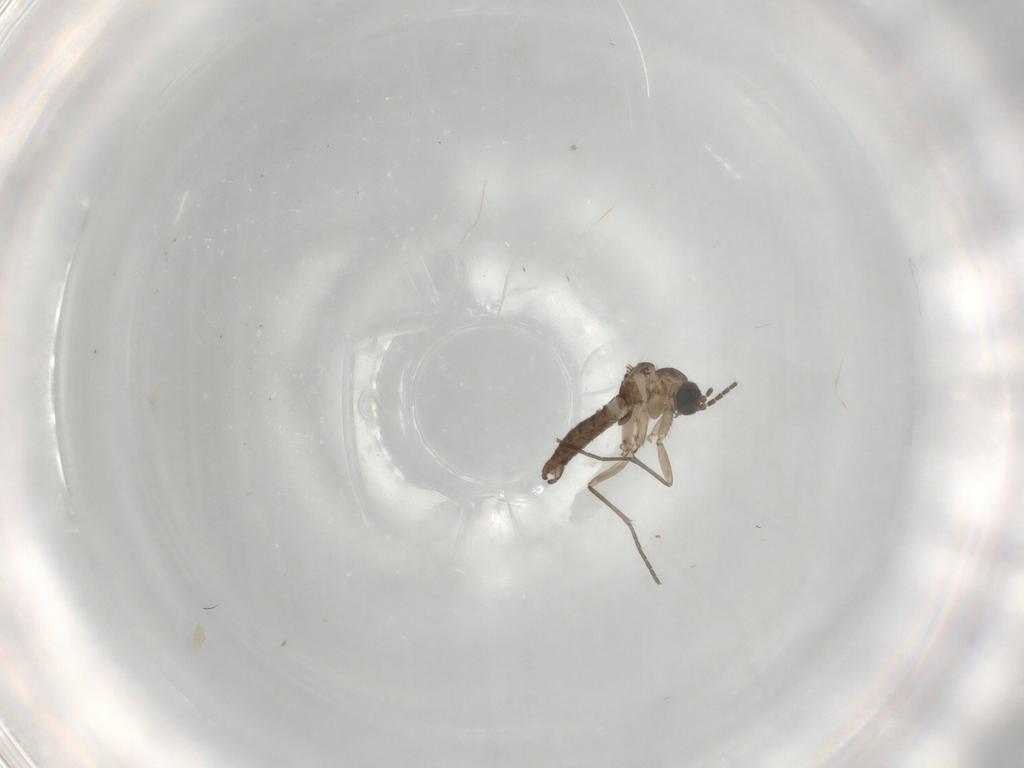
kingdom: Animalia
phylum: Arthropoda
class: Insecta
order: Diptera
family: Sciaridae
